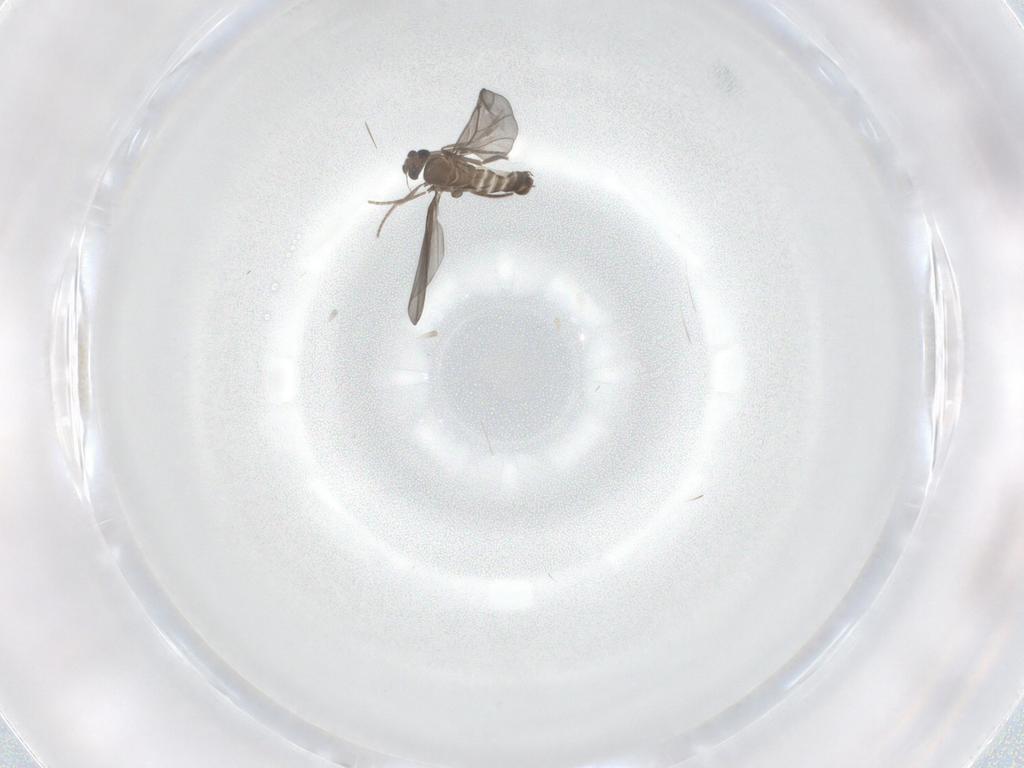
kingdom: Animalia
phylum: Arthropoda
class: Insecta
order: Diptera
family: Phoridae
